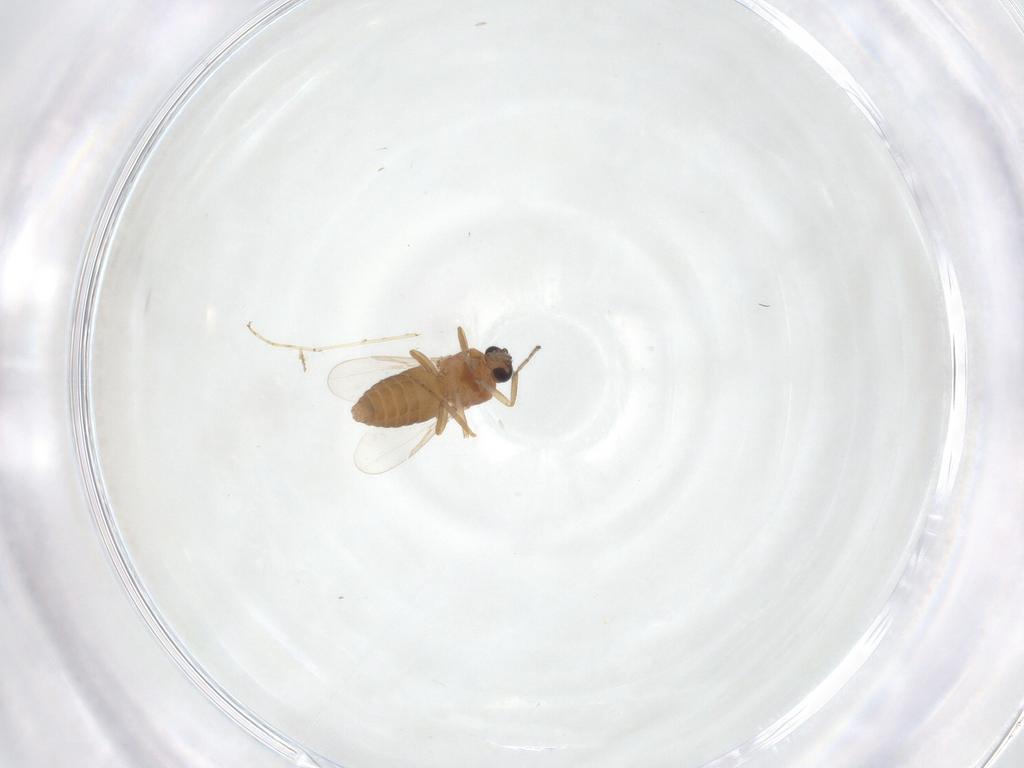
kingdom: Animalia
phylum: Arthropoda
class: Insecta
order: Diptera
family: Ceratopogonidae
